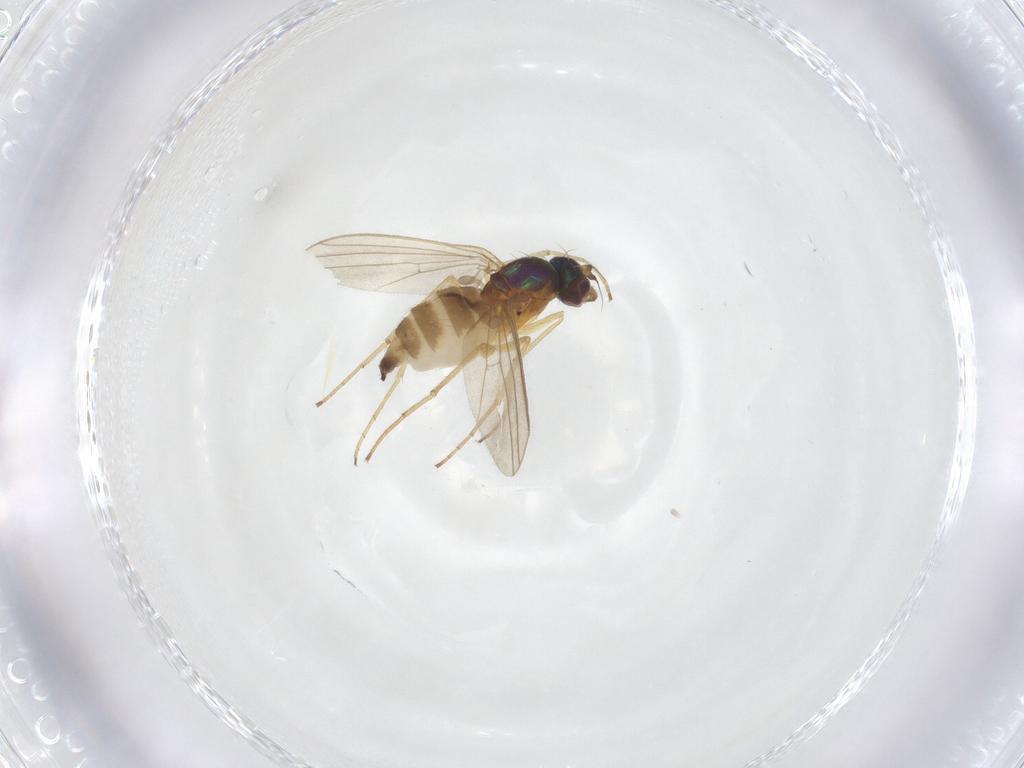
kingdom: Animalia
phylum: Arthropoda
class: Insecta
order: Diptera
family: Dolichopodidae
